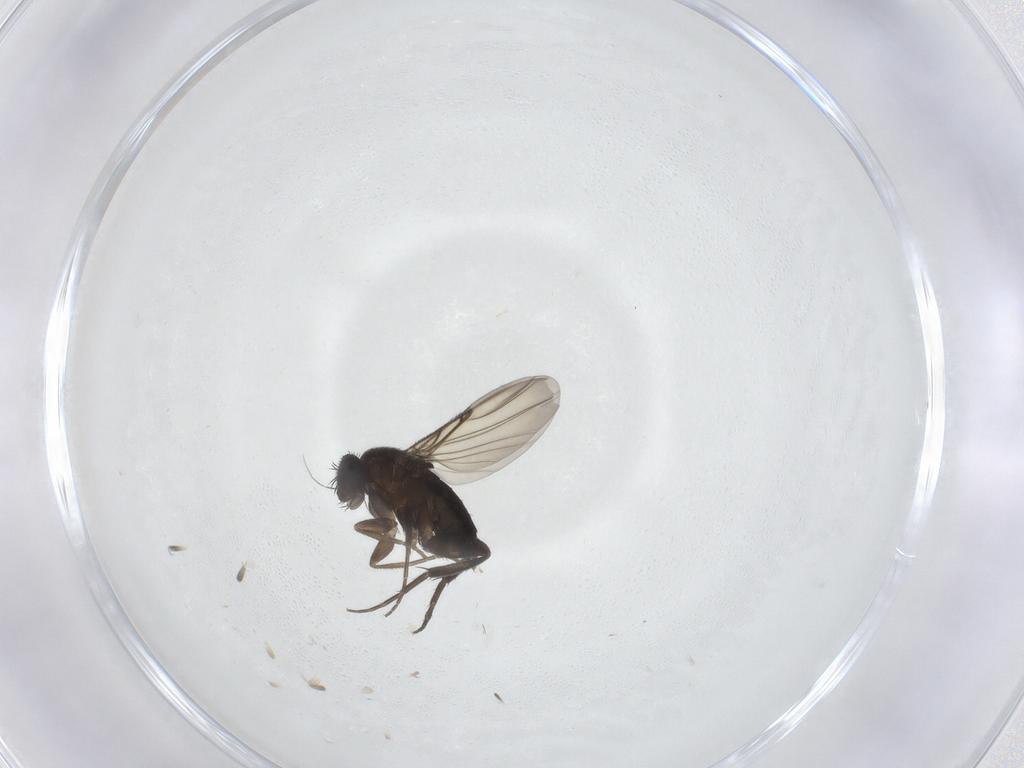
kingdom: Animalia
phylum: Arthropoda
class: Insecta
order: Diptera
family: Phoridae
